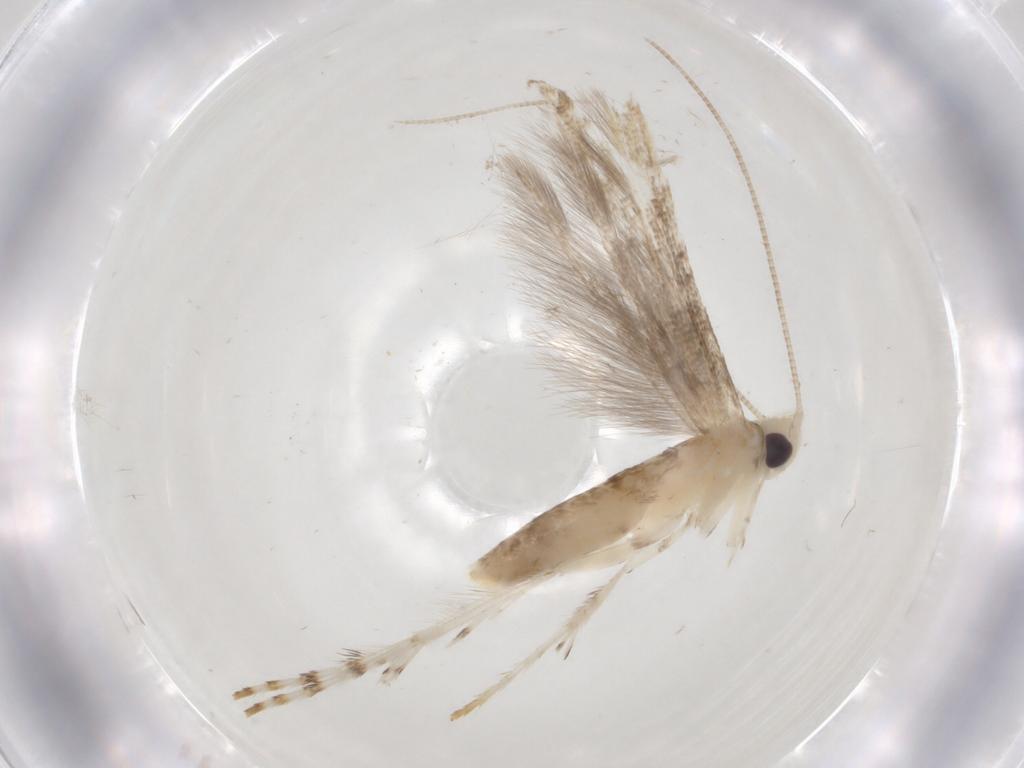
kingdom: Animalia
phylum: Arthropoda
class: Insecta
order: Lepidoptera
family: Gracillariidae
